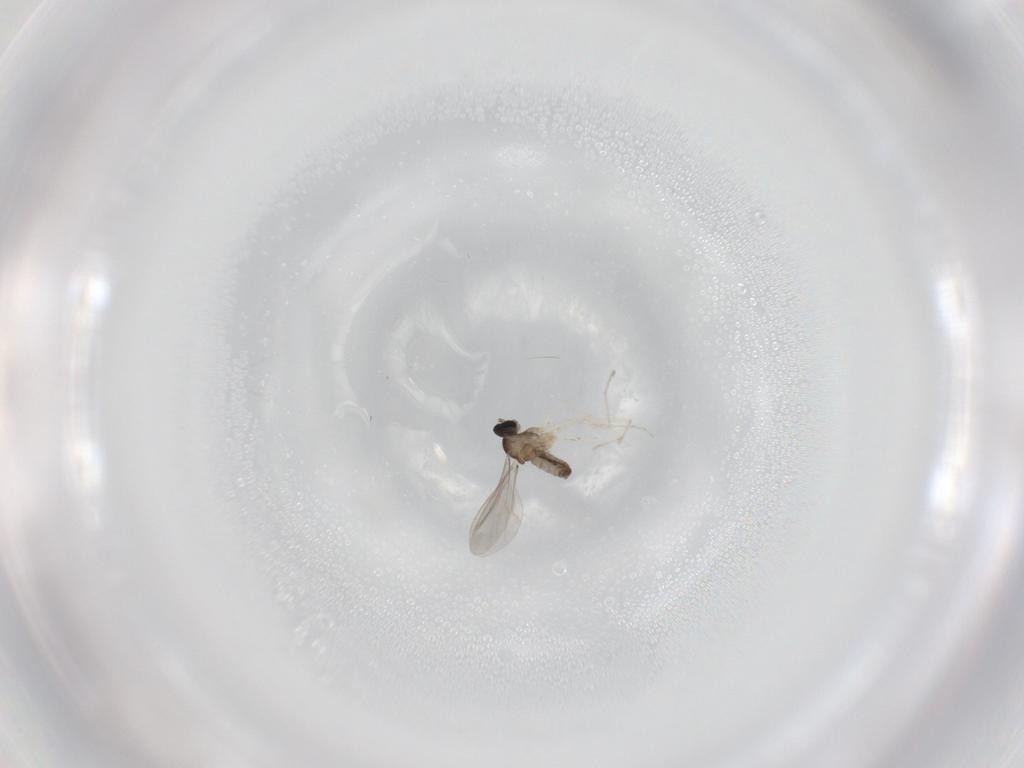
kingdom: Animalia
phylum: Arthropoda
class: Insecta
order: Diptera
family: Cecidomyiidae
